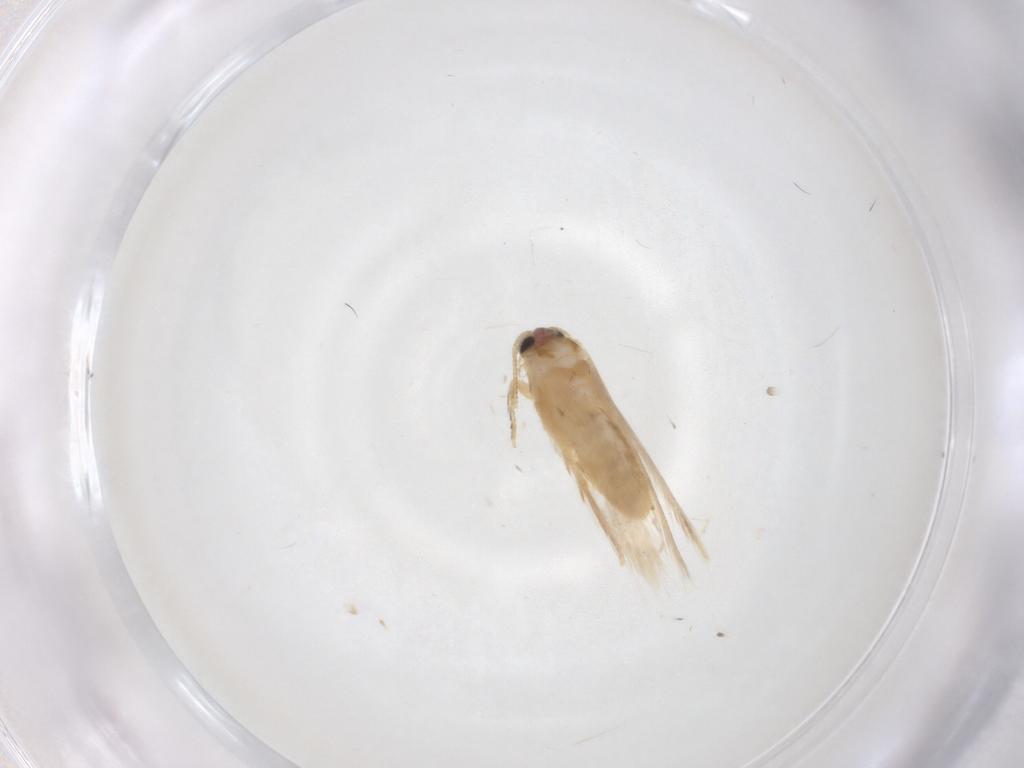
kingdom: Animalia
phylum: Arthropoda
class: Insecta
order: Lepidoptera
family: Nepticulidae
